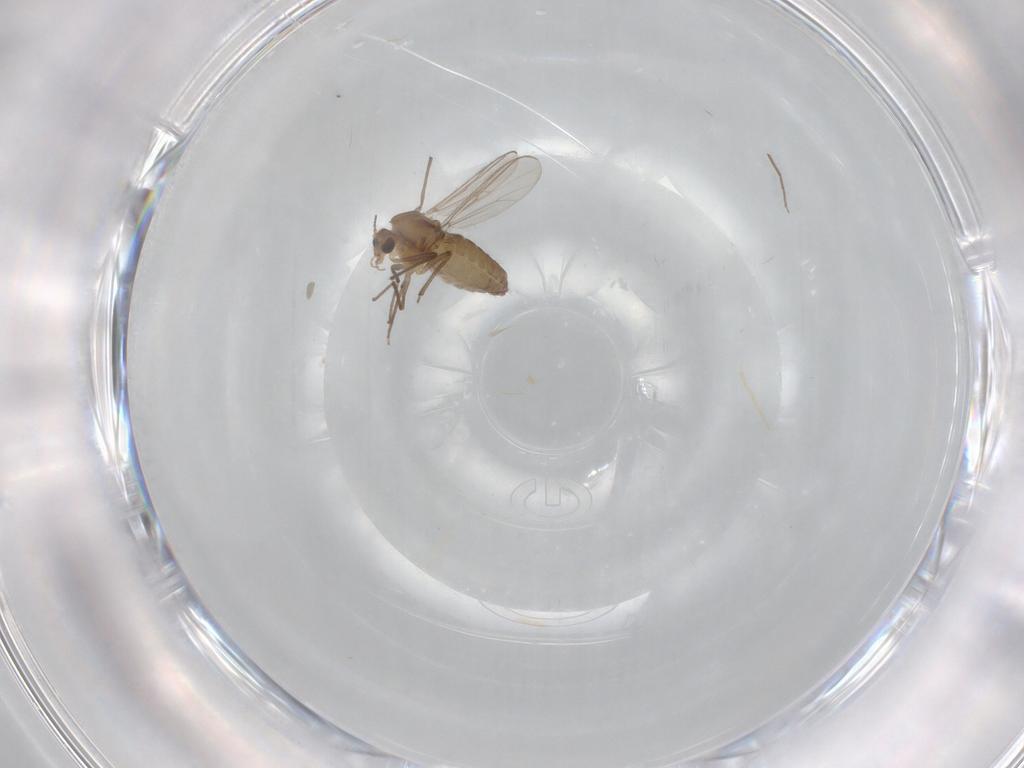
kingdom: Animalia
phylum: Arthropoda
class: Insecta
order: Diptera
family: Chironomidae
